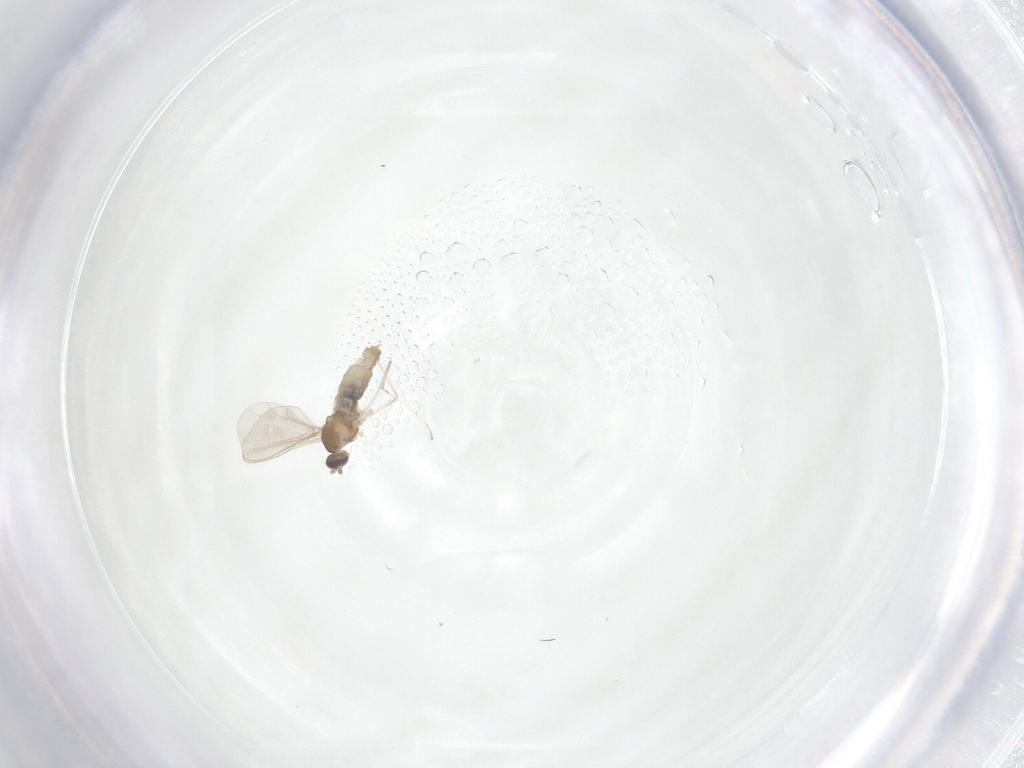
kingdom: Animalia
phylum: Arthropoda
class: Insecta
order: Diptera
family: Cecidomyiidae
